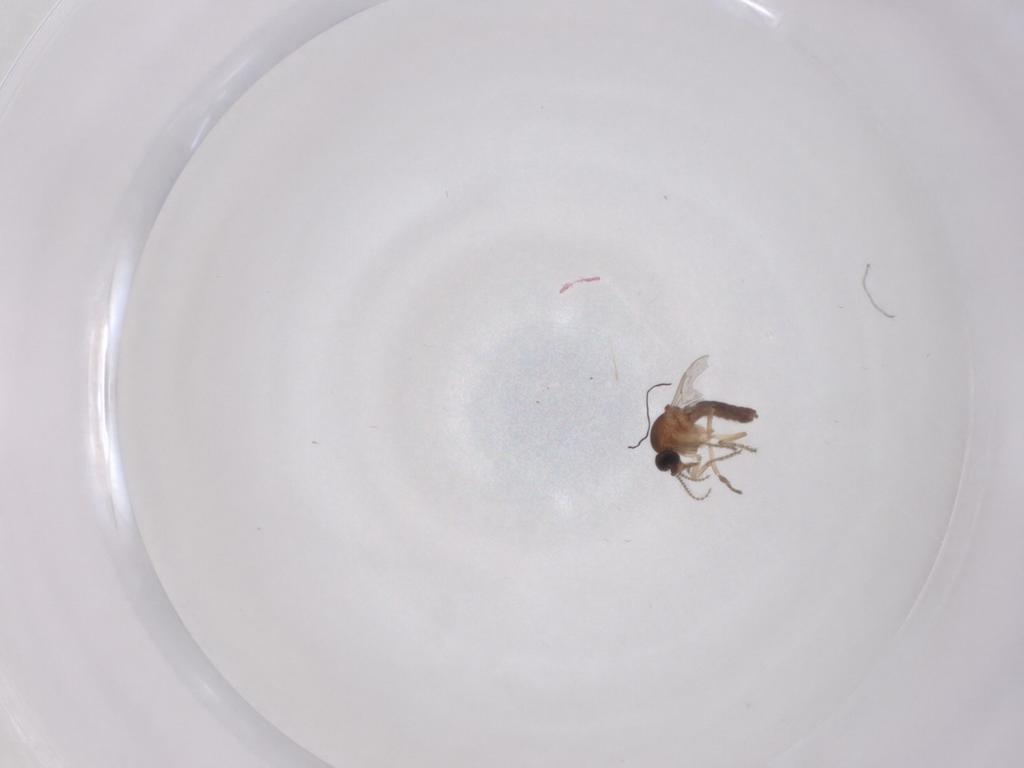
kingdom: Animalia
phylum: Arthropoda
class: Insecta
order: Diptera
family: Ceratopogonidae
